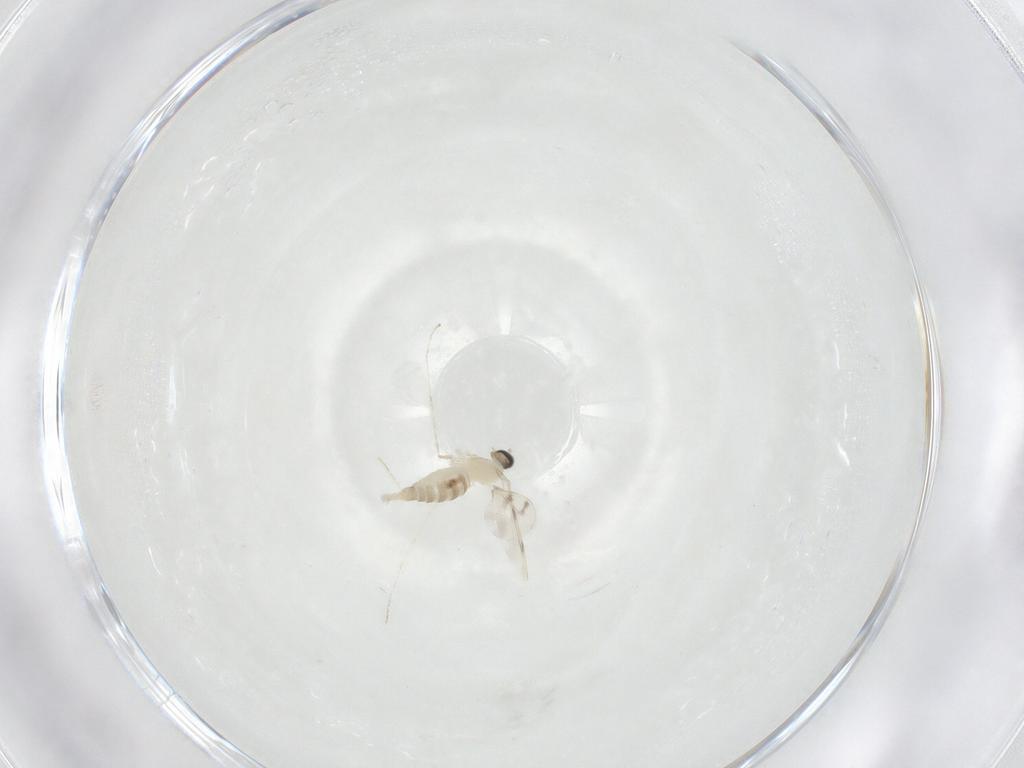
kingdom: Animalia
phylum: Arthropoda
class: Insecta
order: Diptera
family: Cecidomyiidae
